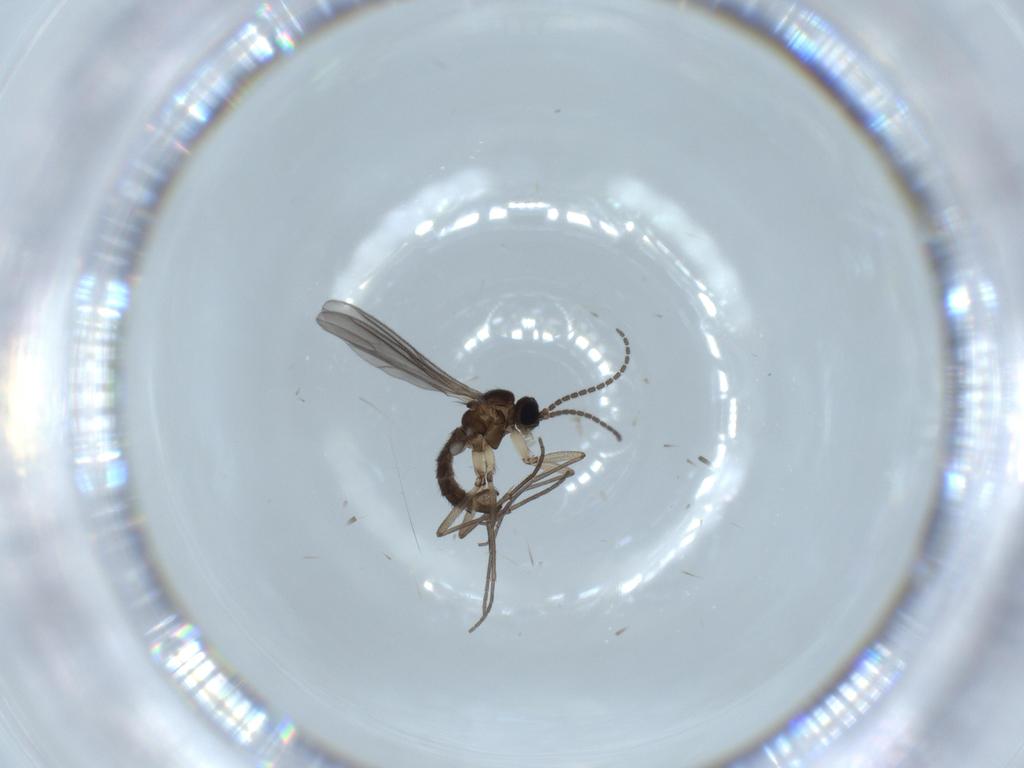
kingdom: Animalia
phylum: Arthropoda
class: Insecta
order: Diptera
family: Sciaridae
